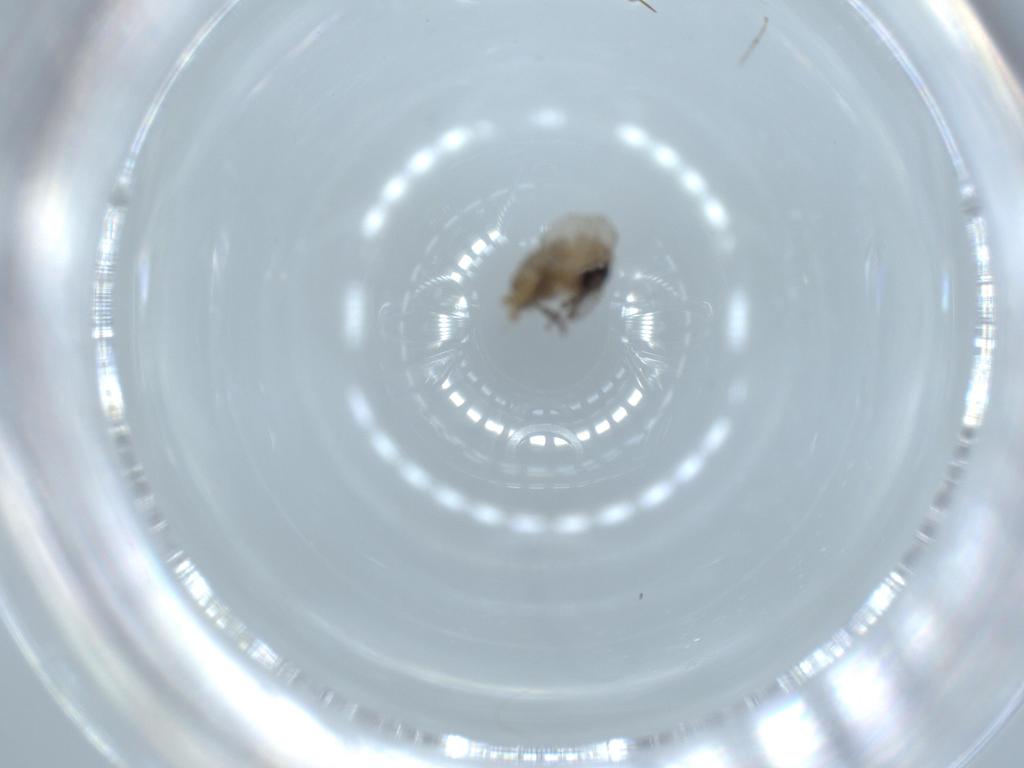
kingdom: Animalia
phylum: Arthropoda
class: Insecta
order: Diptera
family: Psychodidae
